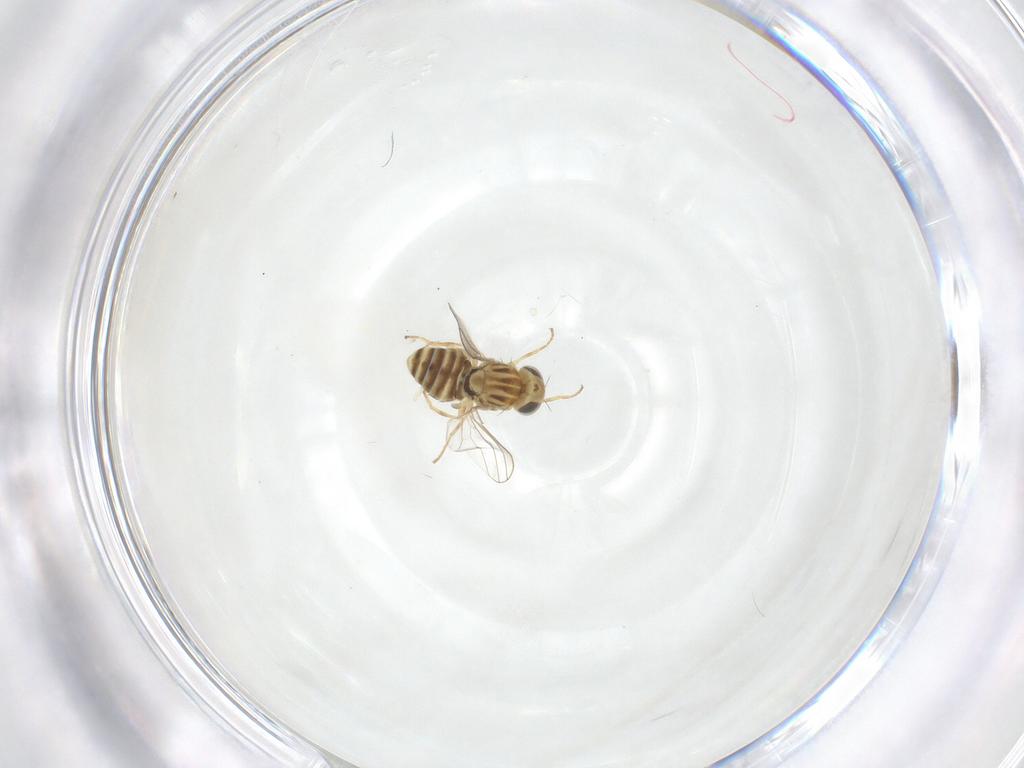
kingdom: Animalia
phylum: Arthropoda
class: Insecta
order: Diptera
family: Chyromyidae
